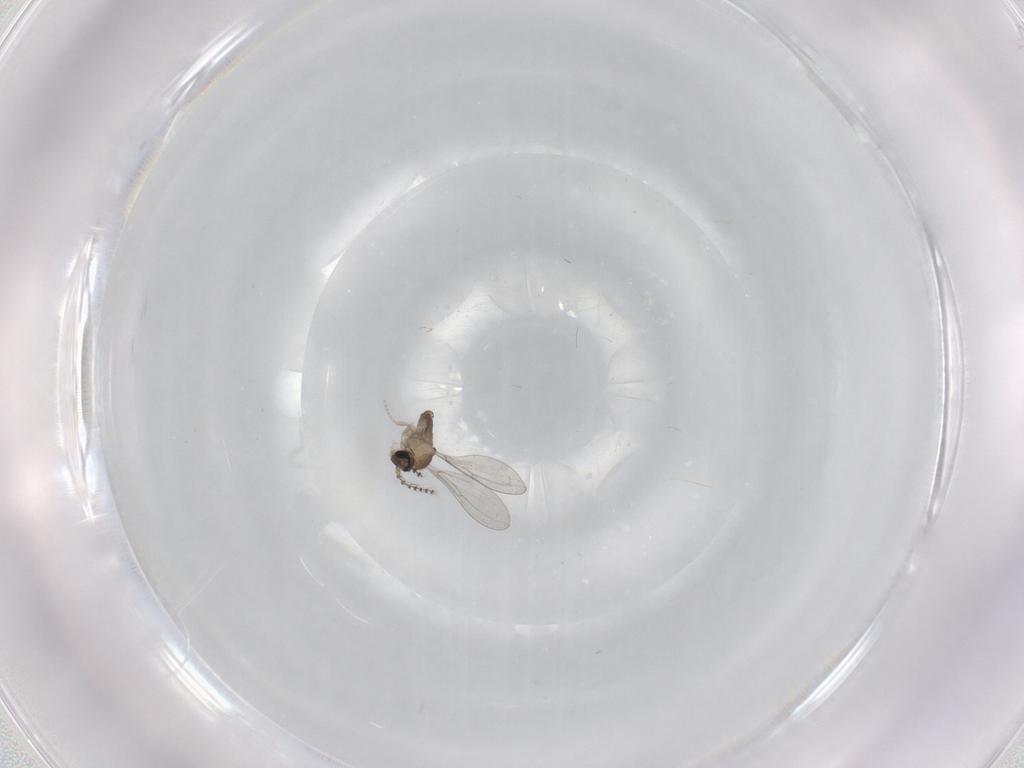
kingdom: Animalia
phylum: Arthropoda
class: Insecta
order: Diptera
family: Cecidomyiidae
